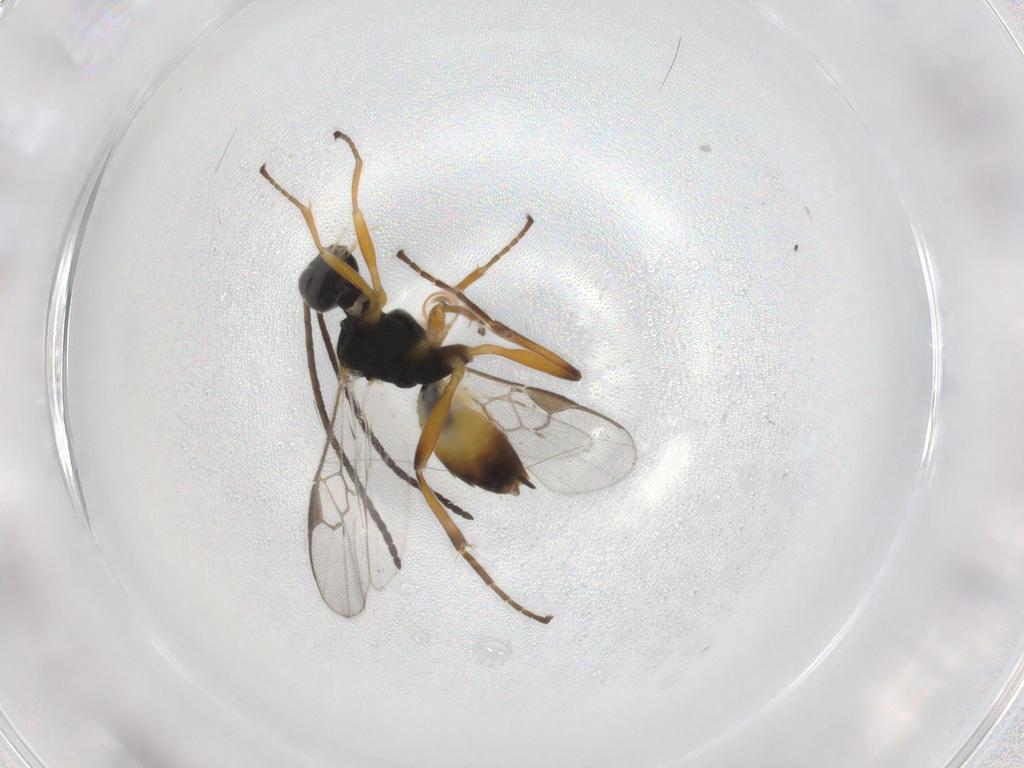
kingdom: Animalia
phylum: Arthropoda
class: Insecta
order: Hymenoptera
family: Braconidae
